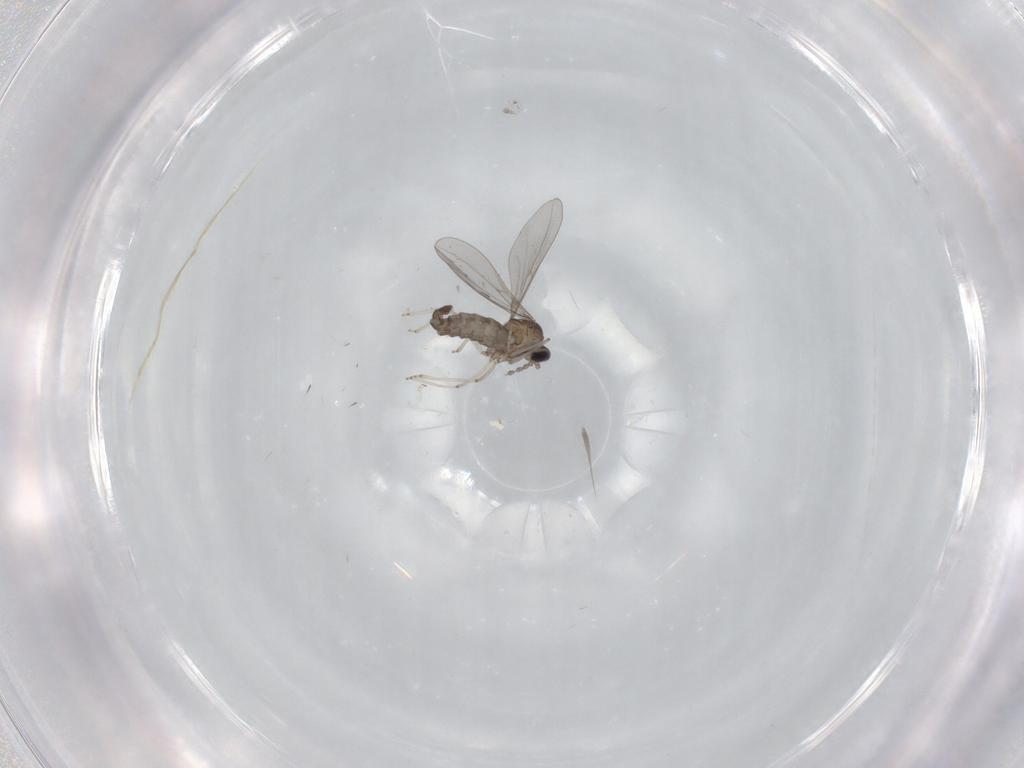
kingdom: Animalia
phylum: Arthropoda
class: Insecta
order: Diptera
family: Cecidomyiidae
